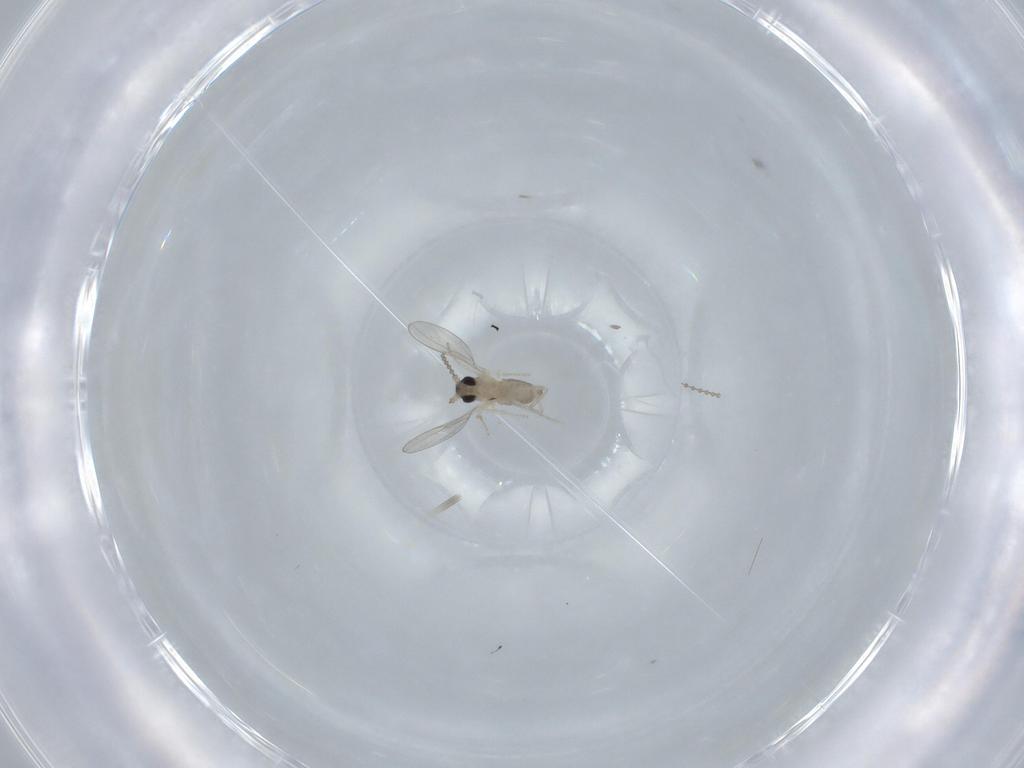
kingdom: Animalia
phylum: Arthropoda
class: Insecta
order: Diptera
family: Cecidomyiidae
